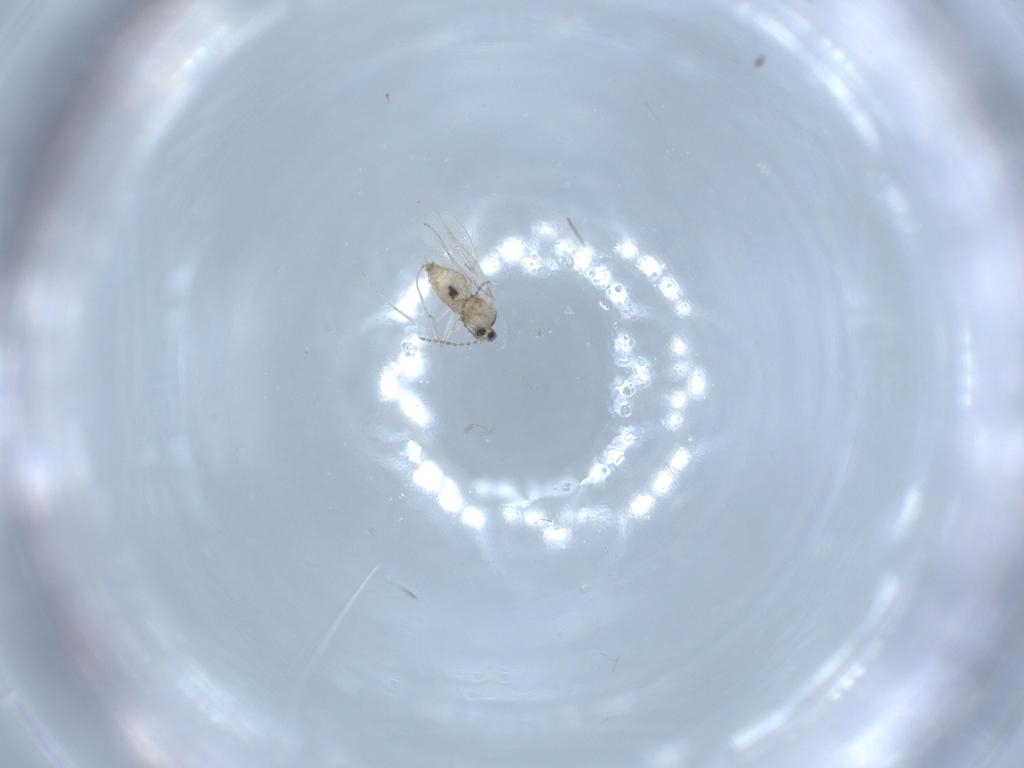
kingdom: Animalia
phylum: Arthropoda
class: Insecta
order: Diptera
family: Cecidomyiidae
